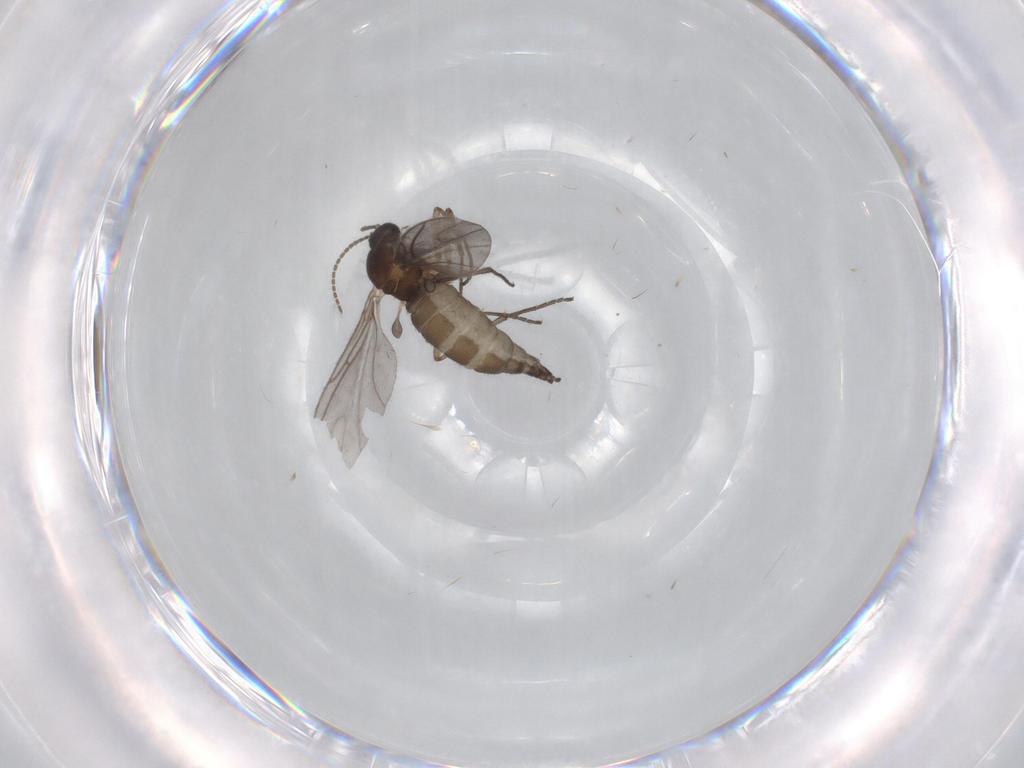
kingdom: Animalia
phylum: Arthropoda
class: Insecta
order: Diptera
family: Sciaridae
